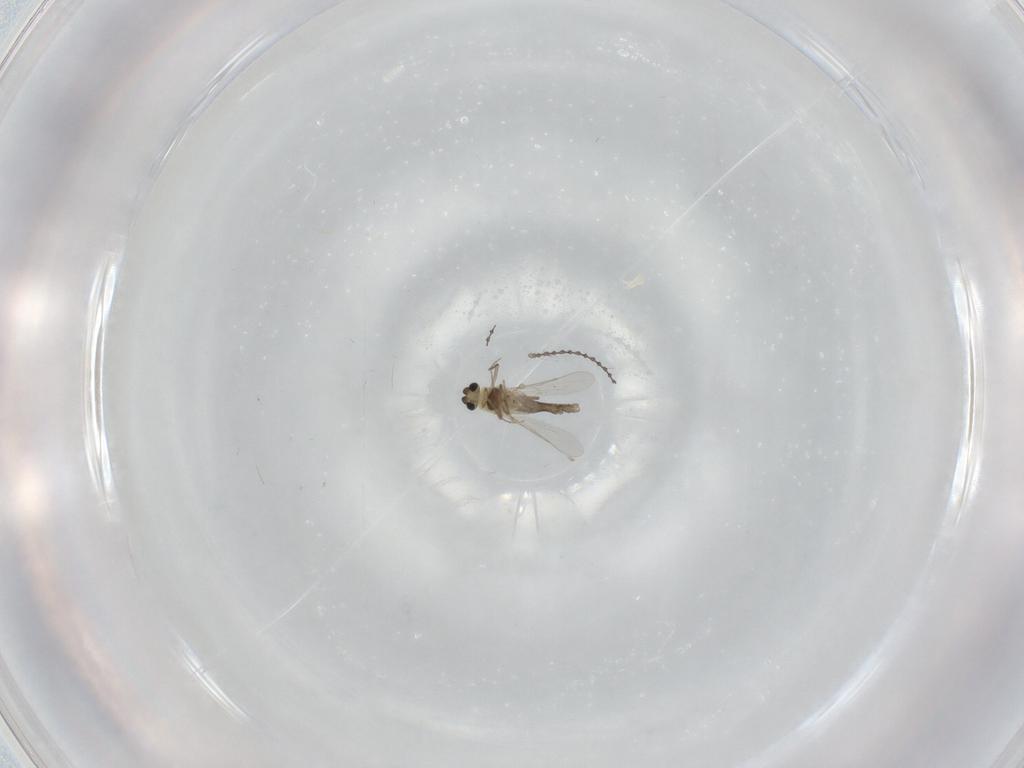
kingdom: Animalia
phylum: Arthropoda
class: Insecta
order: Diptera
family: Chironomidae
